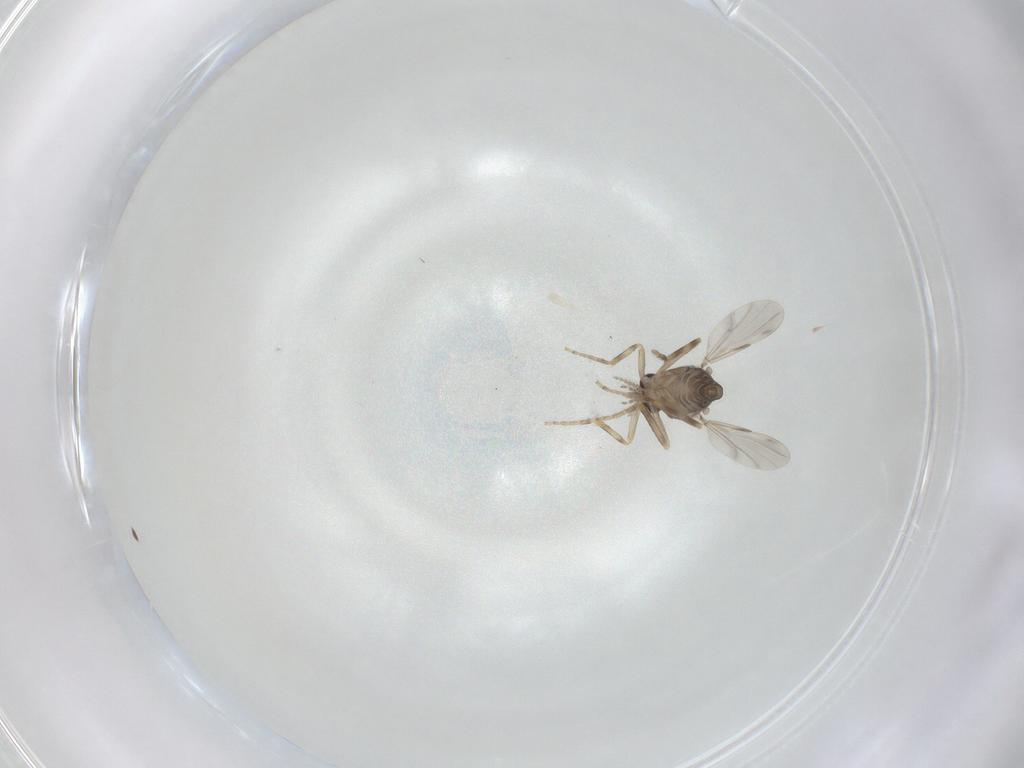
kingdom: Animalia
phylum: Arthropoda
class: Insecta
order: Diptera
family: Ceratopogonidae
